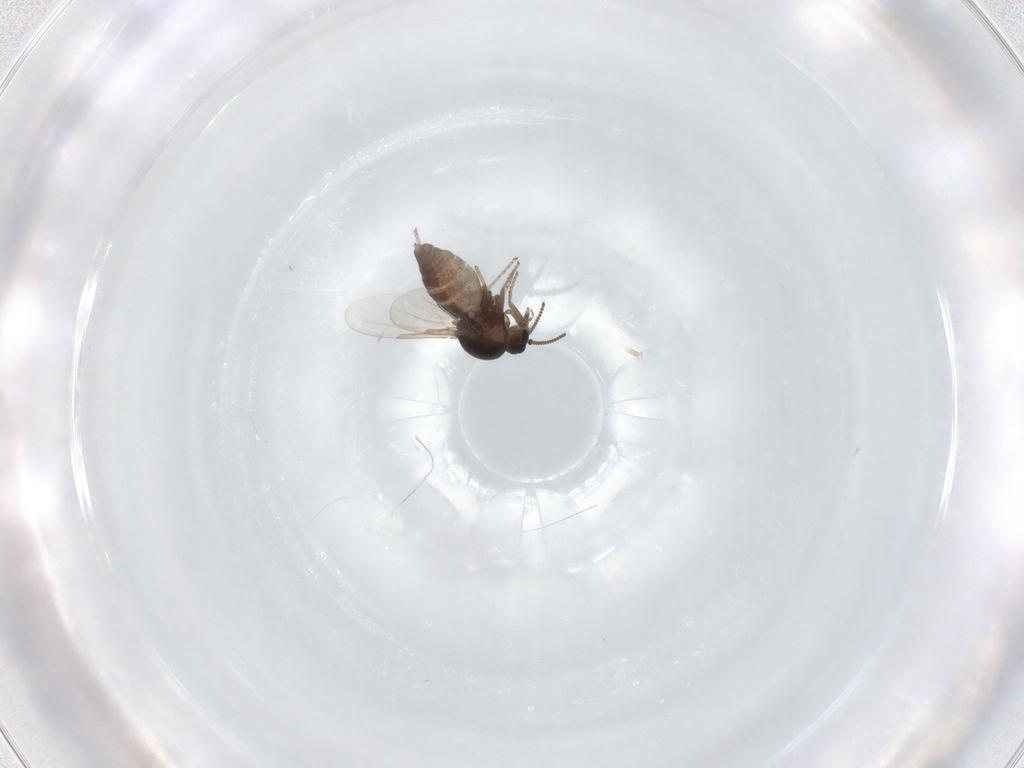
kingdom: Animalia
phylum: Arthropoda
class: Insecta
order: Diptera
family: Ceratopogonidae
